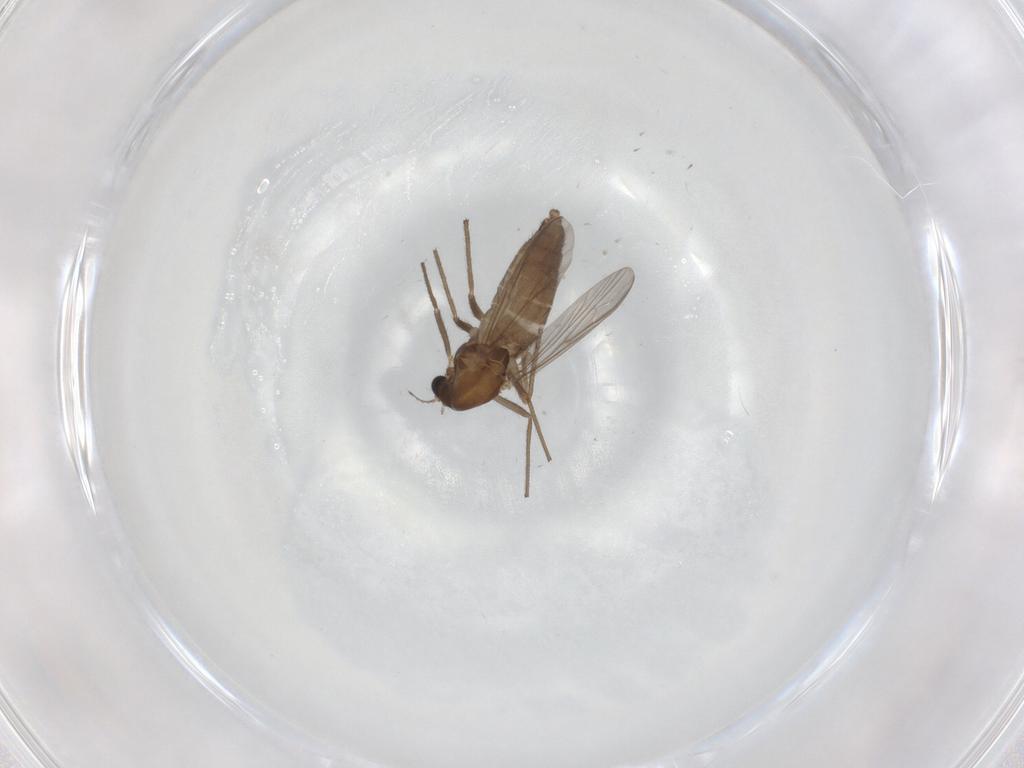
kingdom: Animalia
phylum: Arthropoda
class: Insecta
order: Diptera
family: Chironomidae
